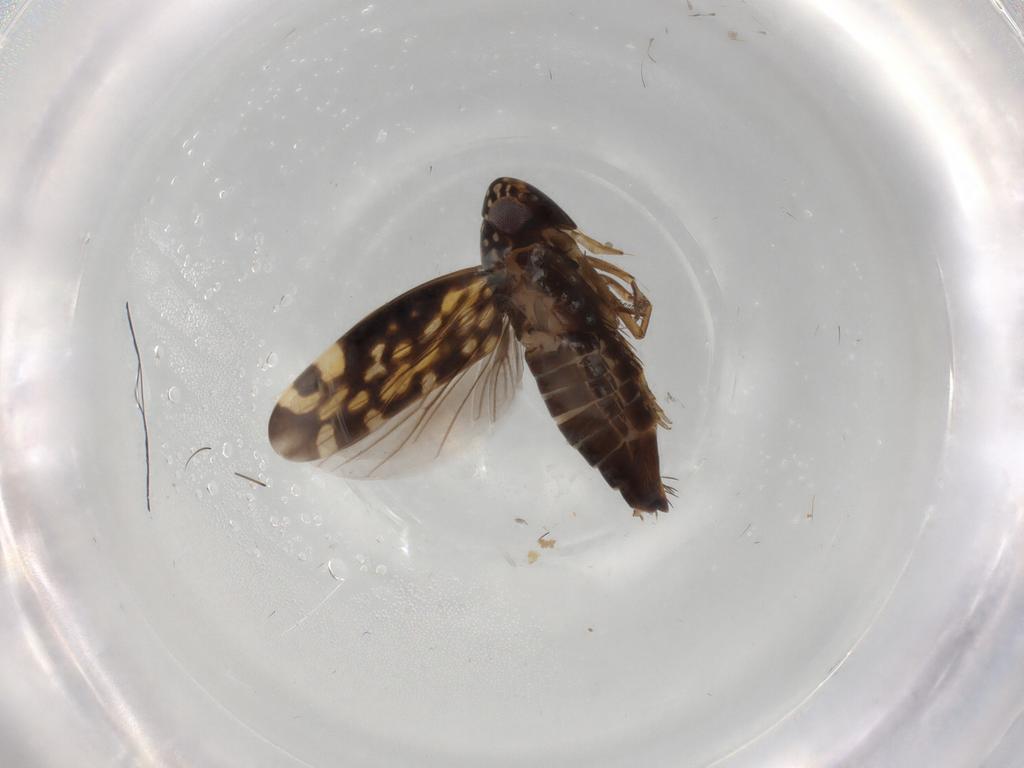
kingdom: Animalia
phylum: Arthropoda
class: Insecta
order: Hemiptera
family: Cicadellidae
